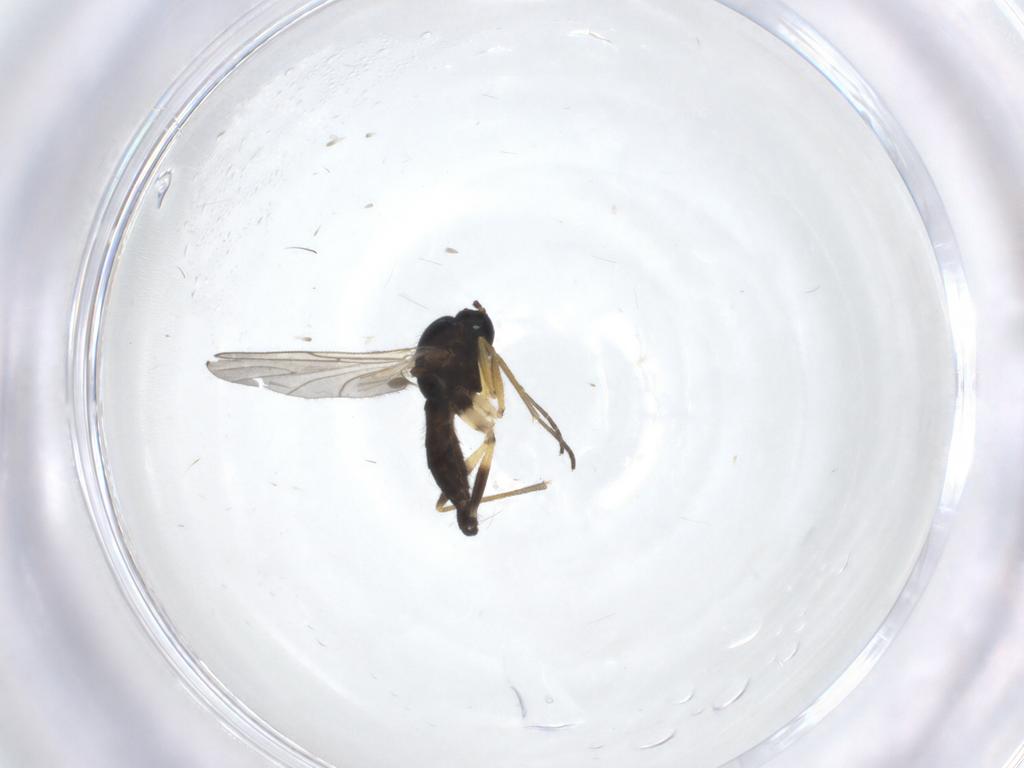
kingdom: Animalia
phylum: Arthropoda
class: Insecta
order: Diptera
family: Sciaridae
